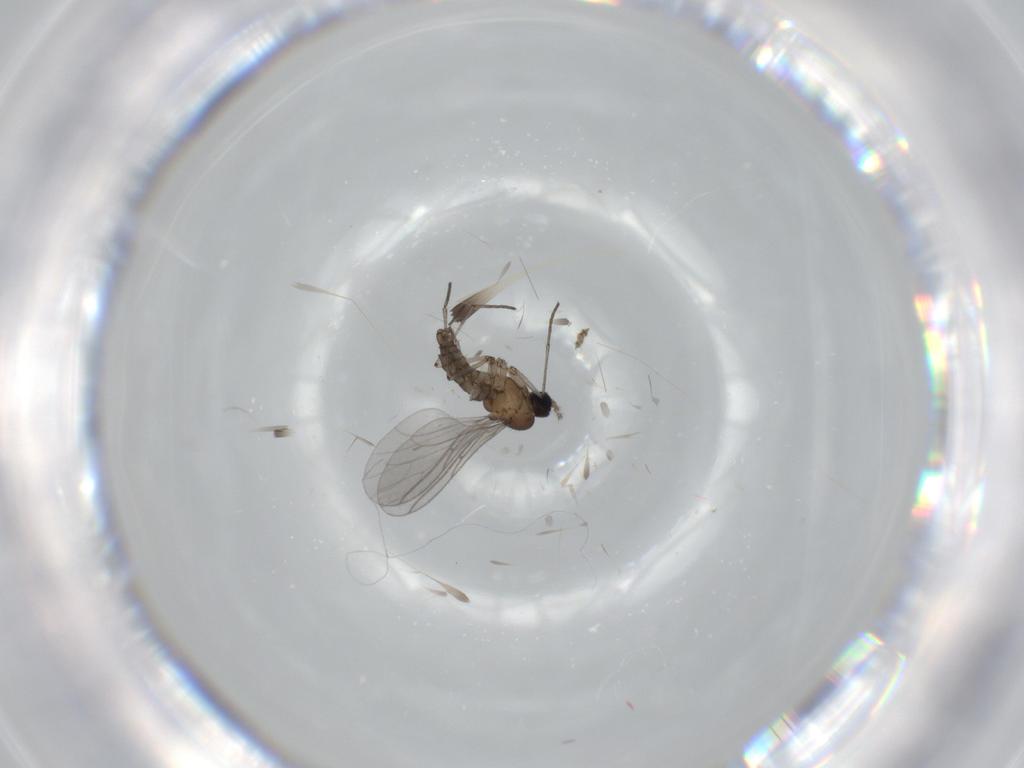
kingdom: Animalia
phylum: Arthropoda
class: Insecta
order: Diptera
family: Sciaridae
